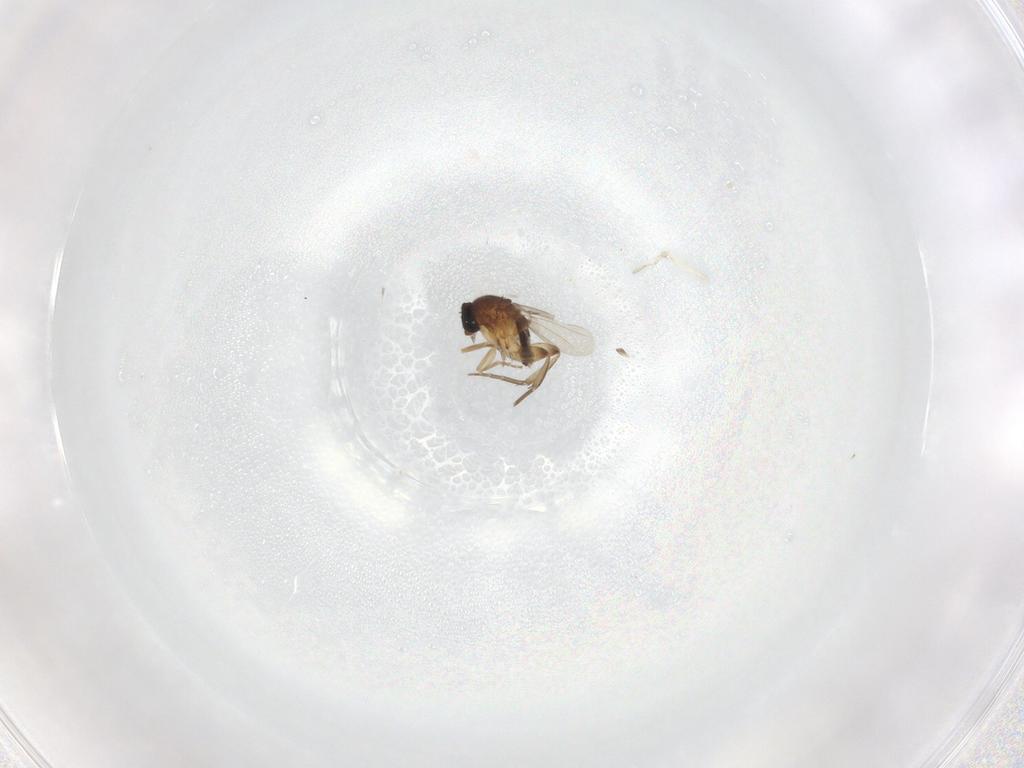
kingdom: Animalia
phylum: Arthropoda
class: Insecta
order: Diptera
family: Phoridae
